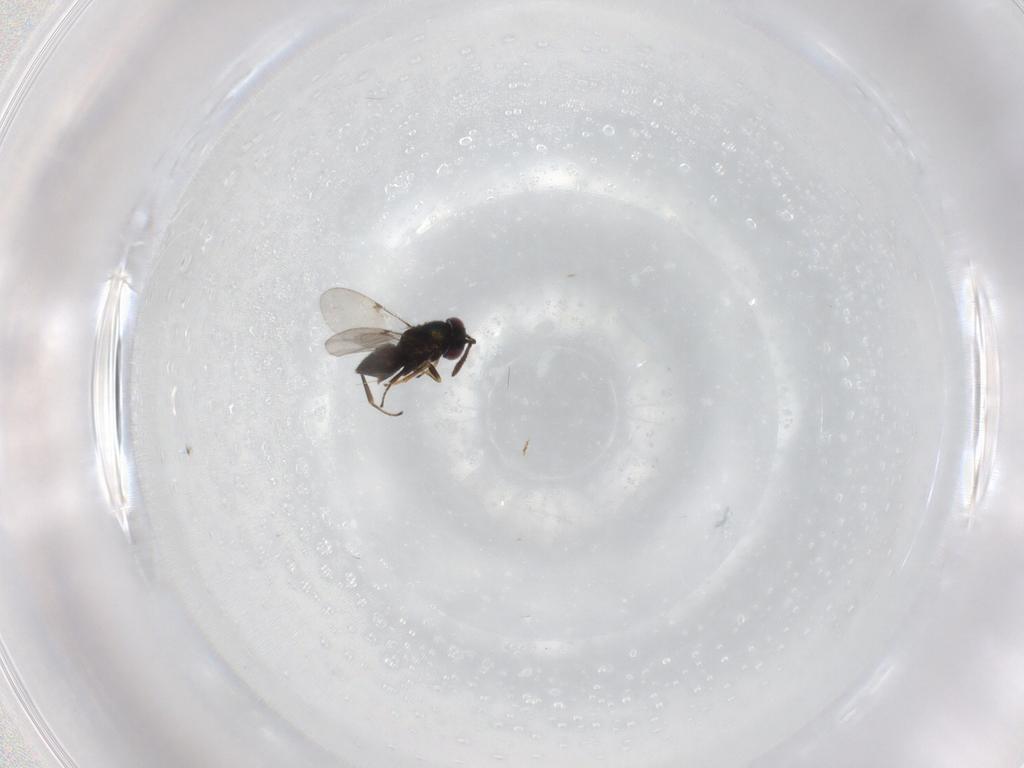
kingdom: Animalia
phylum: Arthropoda
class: Insecta
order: Hymenoptera
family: Encyrtidae
